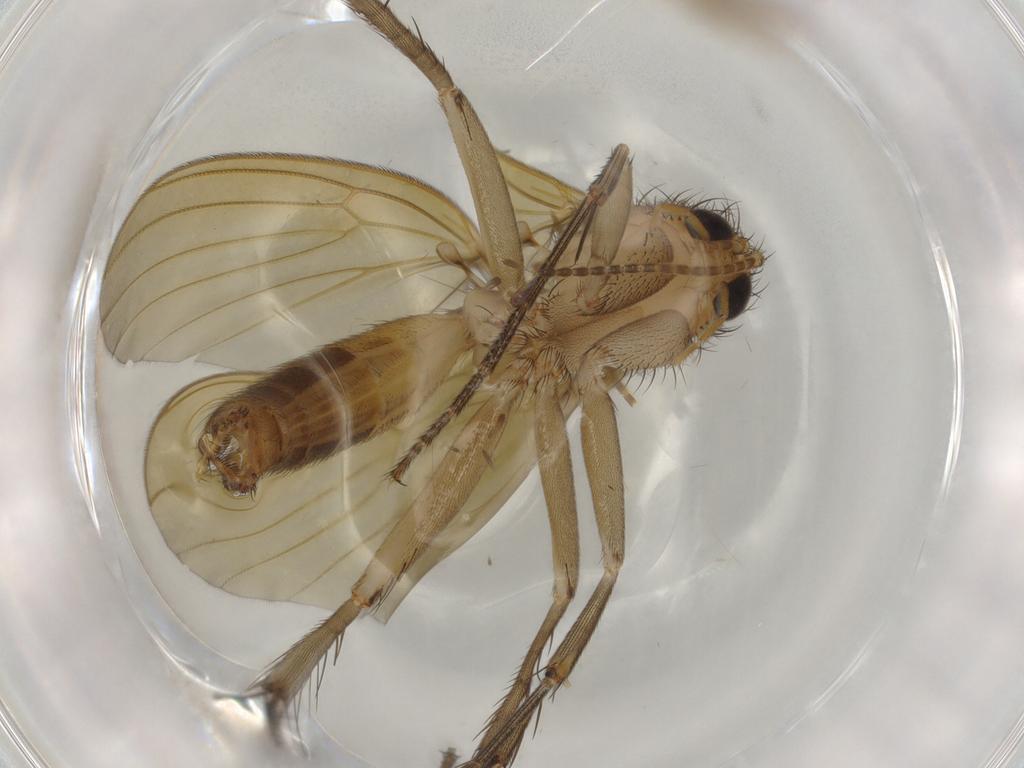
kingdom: Animalia
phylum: Arthropoda
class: Insecta
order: Diptera
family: Mycetophilidae
